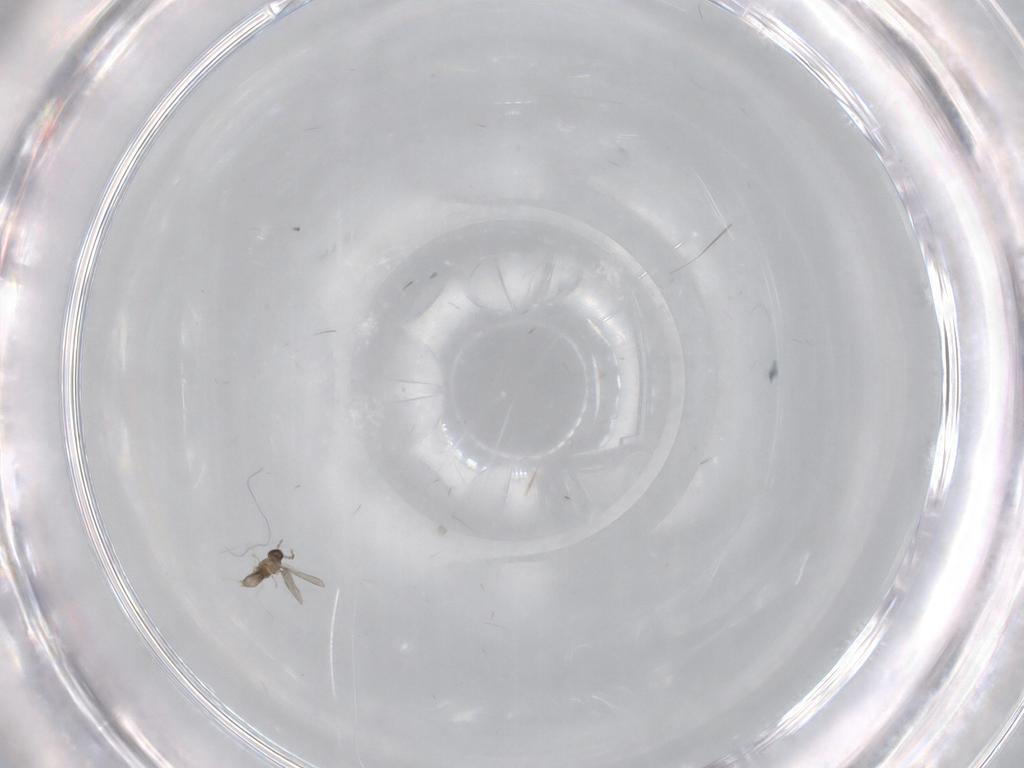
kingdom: Animalia
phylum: Arthropoda
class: Insecta
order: Diptera
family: Cecidomyiidae
